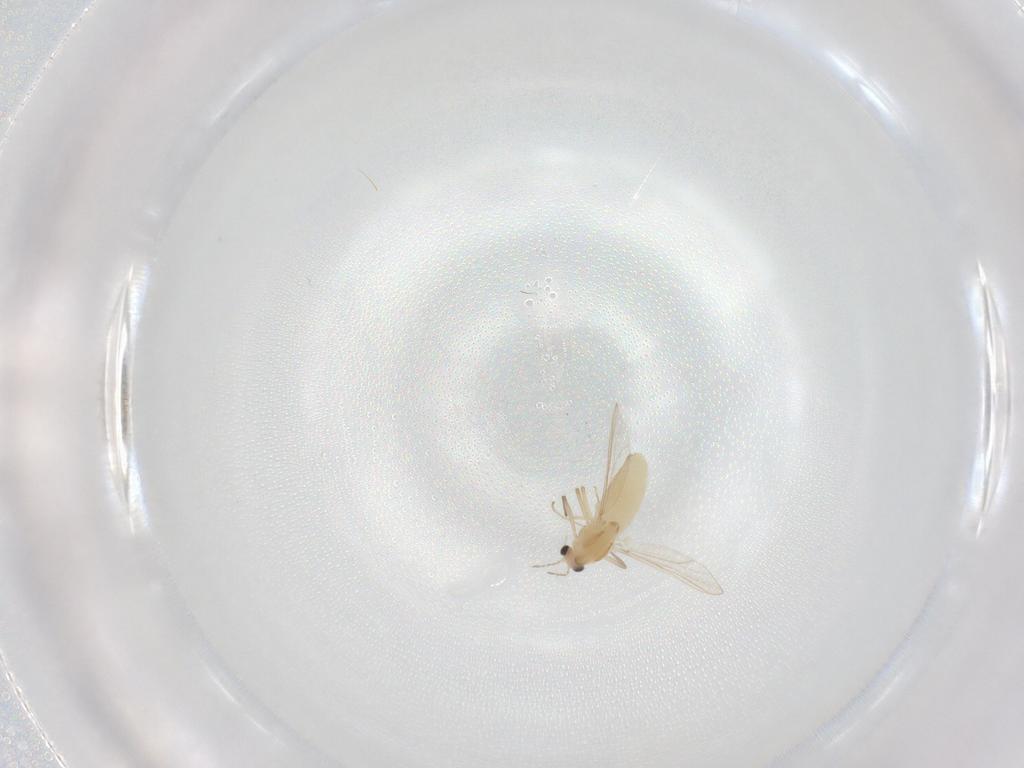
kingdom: Animalia
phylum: Arthropoda
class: Insecta
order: Diptera
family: Chironomidae
